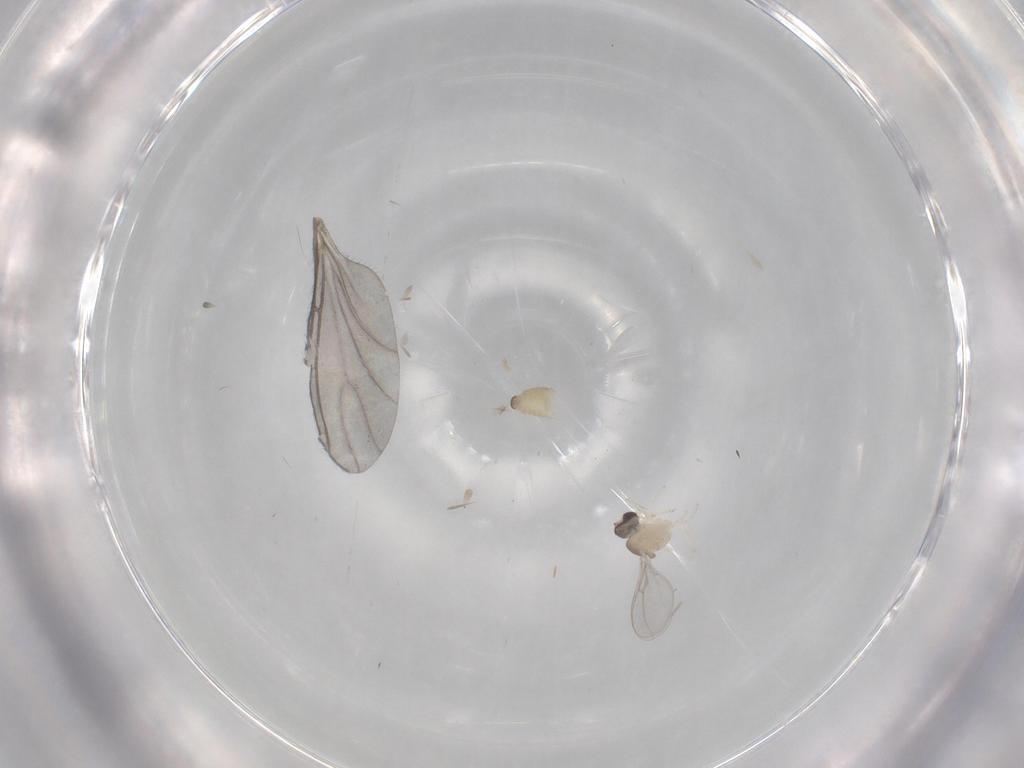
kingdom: Animalia
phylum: Arthropoda
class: Insecta
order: Diptera
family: Cecidomyiidae
